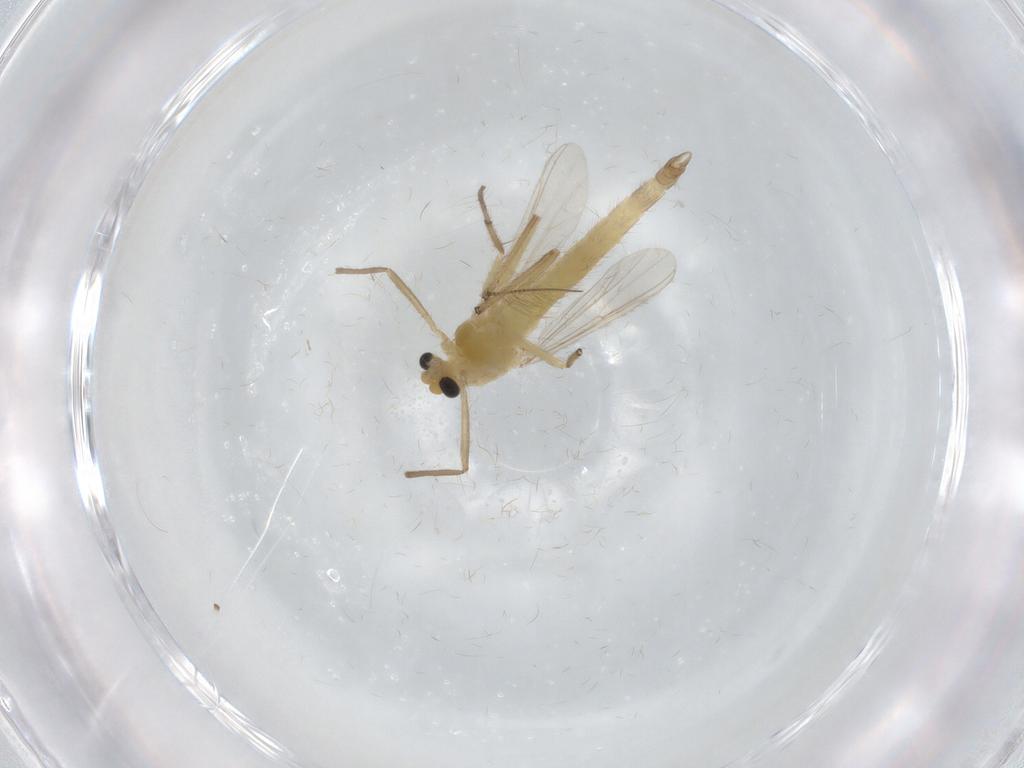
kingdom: Animalia
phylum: Arthropoda
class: Insecta
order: Diptera
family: Chironomidae
